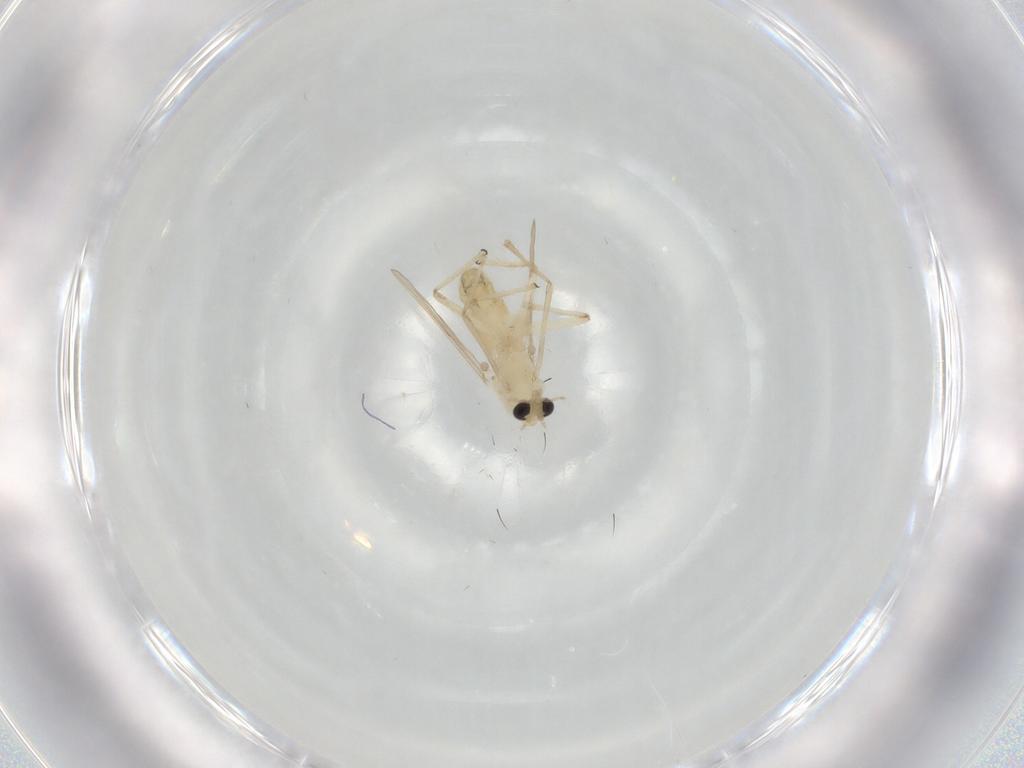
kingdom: Animalia
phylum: Arthropoda
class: Insecta
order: Diptera
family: Chironomidae
